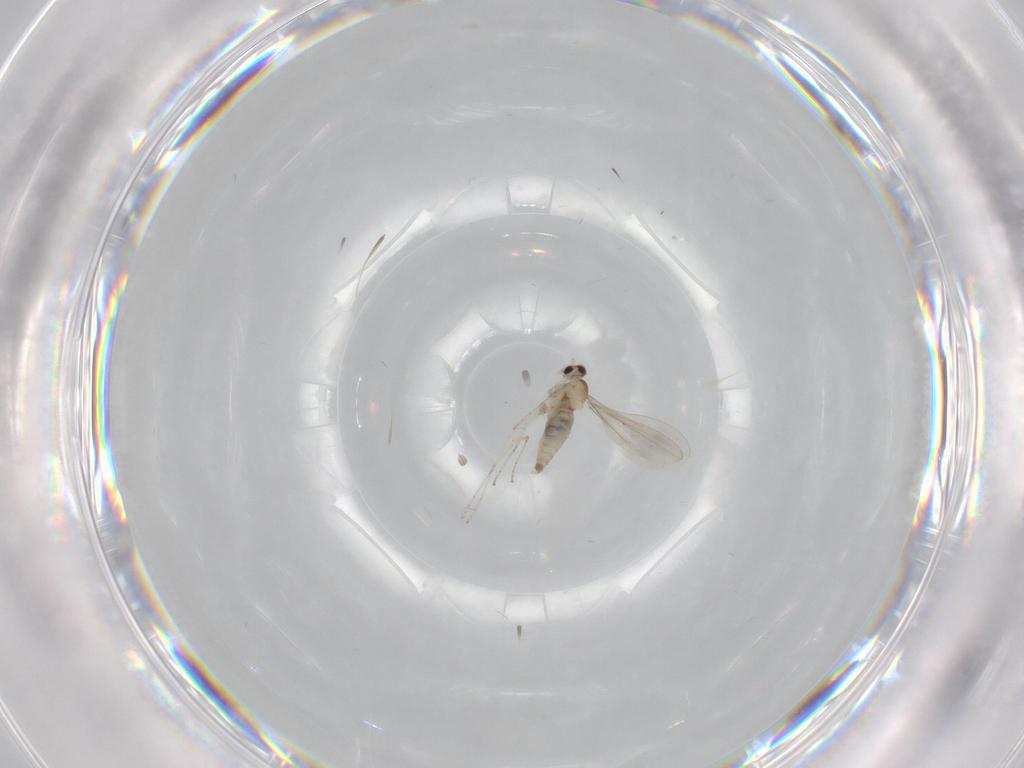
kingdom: Animalia
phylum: Arthropoda
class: Insecta
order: Diptera
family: Cecidomyiidae
